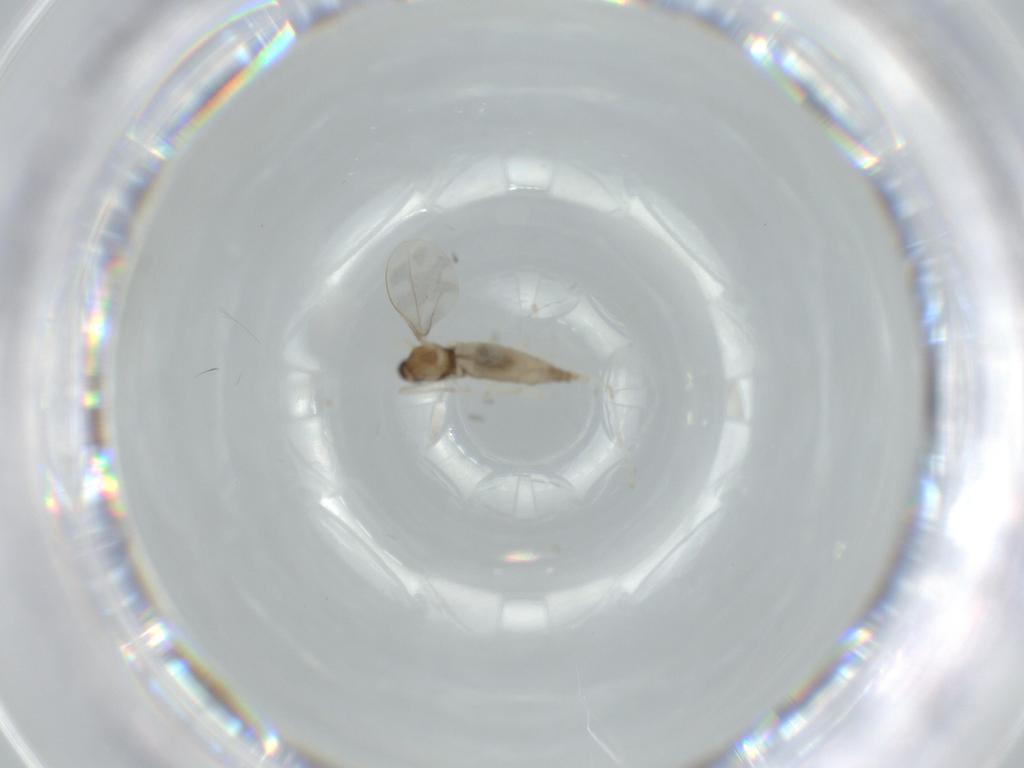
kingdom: Animalia
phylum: Arthropoda
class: Insecta
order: Diptera
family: Cecidomyiidae
